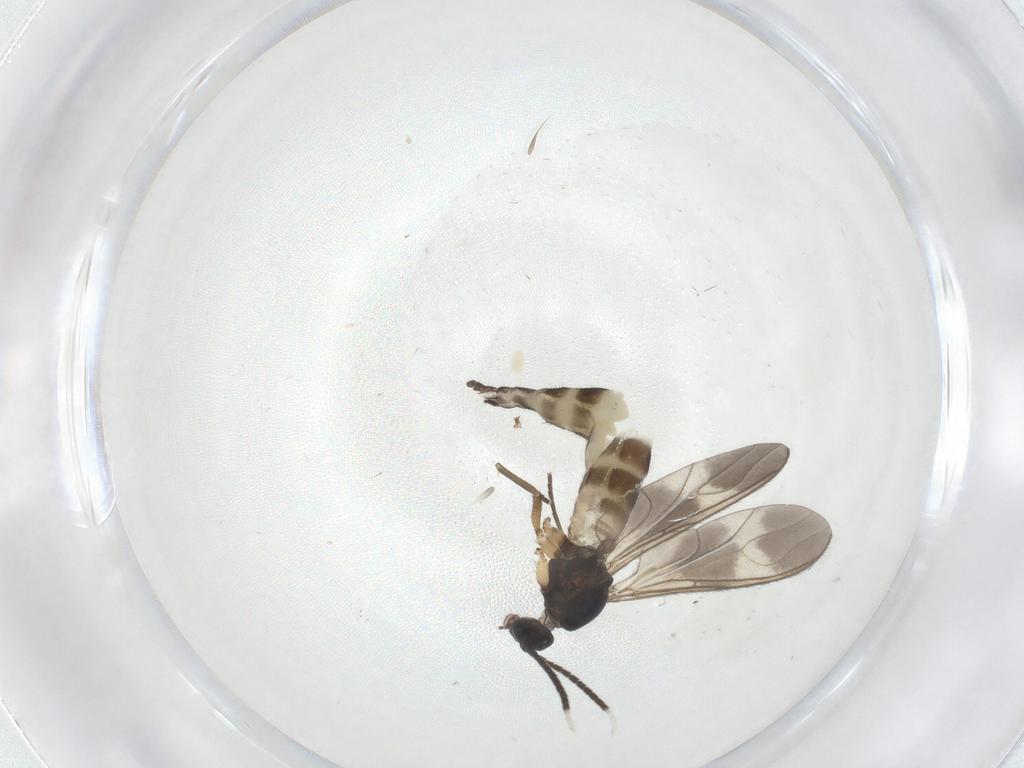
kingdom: Animalia
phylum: Arthropoda
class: Insecta
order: Diptera
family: Sciaridae
